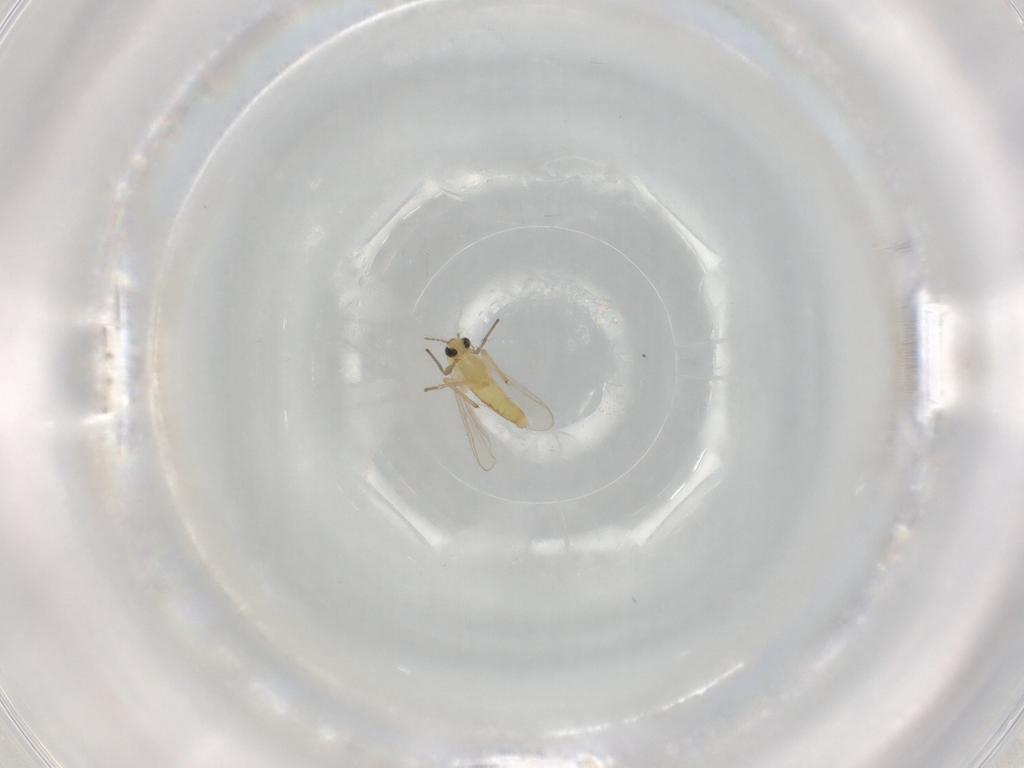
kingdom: Animalia
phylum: Arthropoda
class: Insecta
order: Diptera
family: Chironomidae
